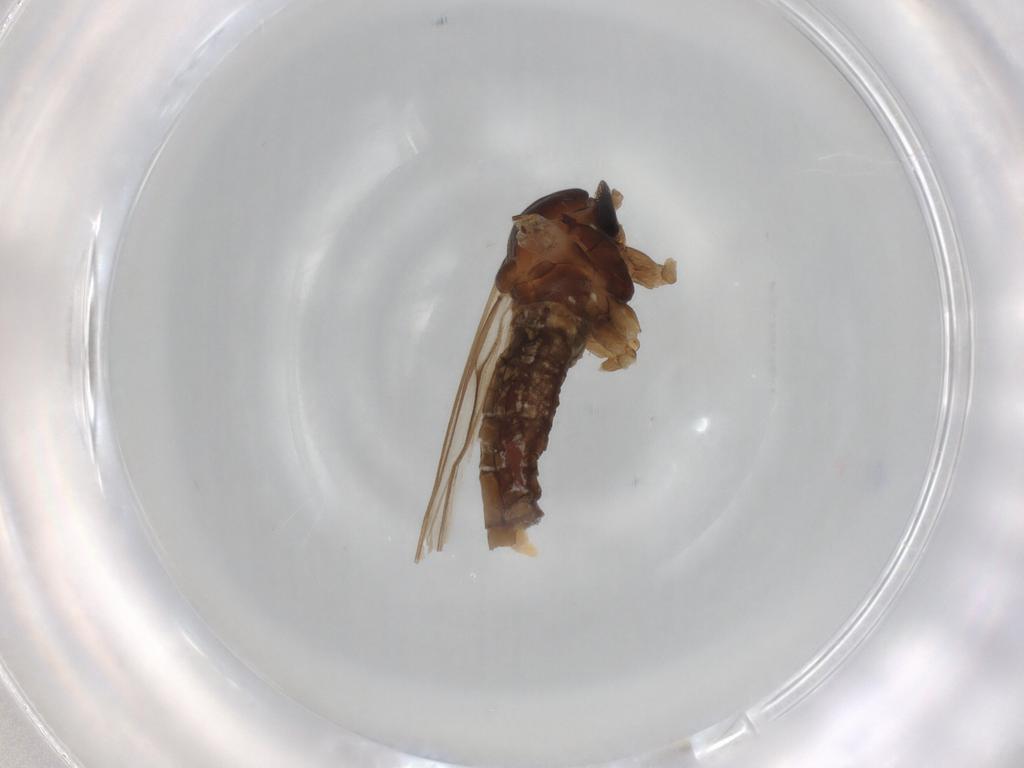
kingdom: Animalia
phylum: Arthropoda
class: Insecta
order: Diptera
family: Cecidomyiidae
